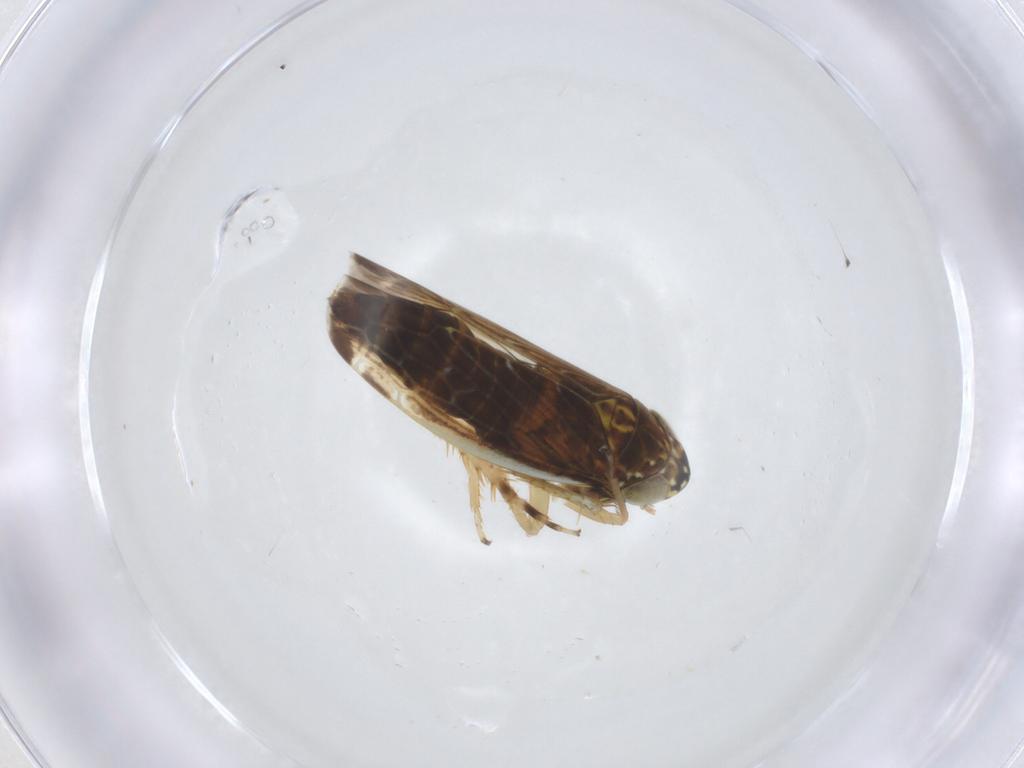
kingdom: Animalia
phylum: Arthropoda
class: Insecta
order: Hemiptera
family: Cicadellidae
